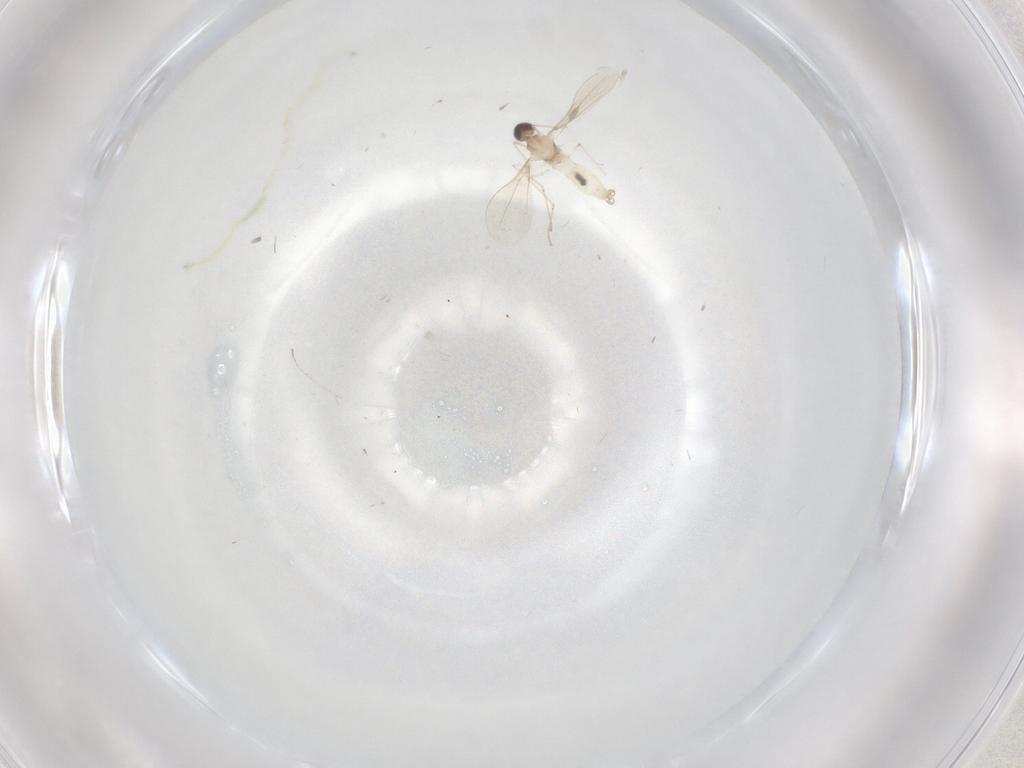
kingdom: Animalia
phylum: Arthropoda
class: Insecta
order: Diptera
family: Cecidomyiidae
